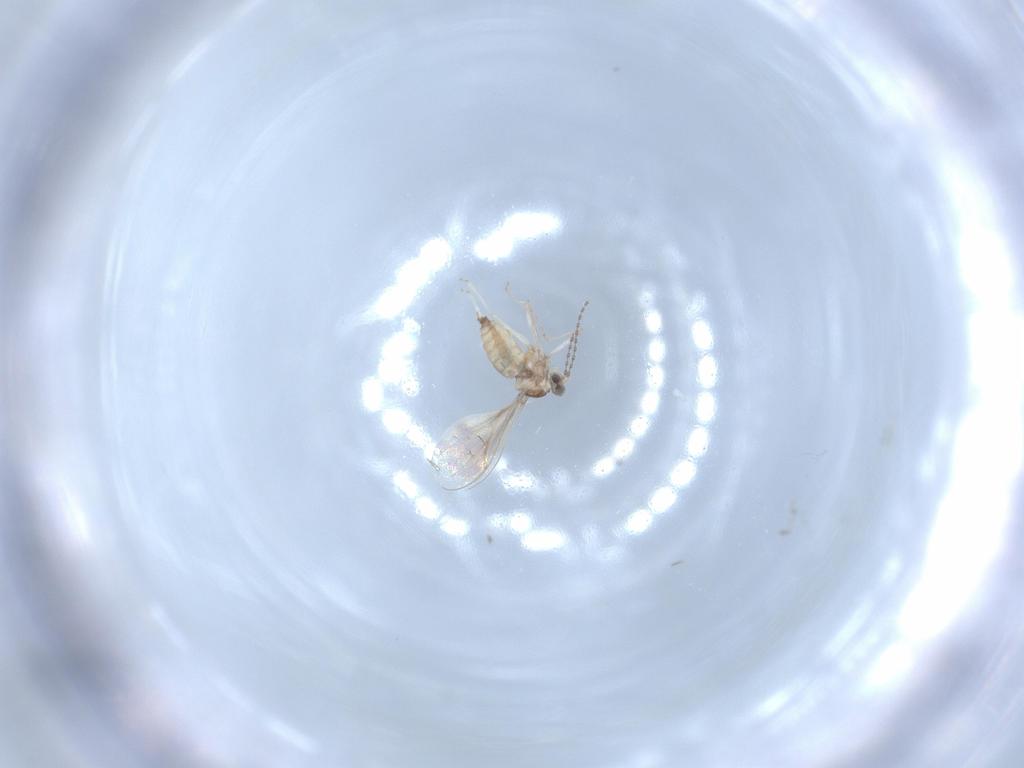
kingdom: Animalia
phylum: Arthropoda
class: Insecta
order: Diptera
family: Cecidomyiidae
